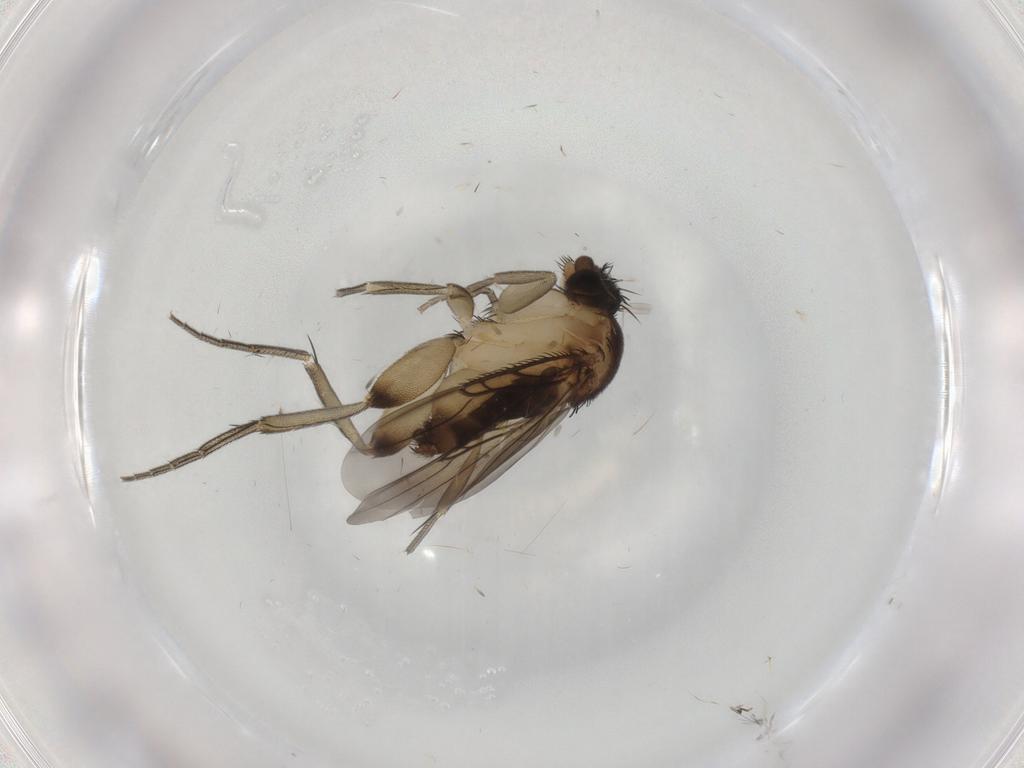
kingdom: Animalia
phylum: Arthropoda
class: Insecta
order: Diptera
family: Phoridae
